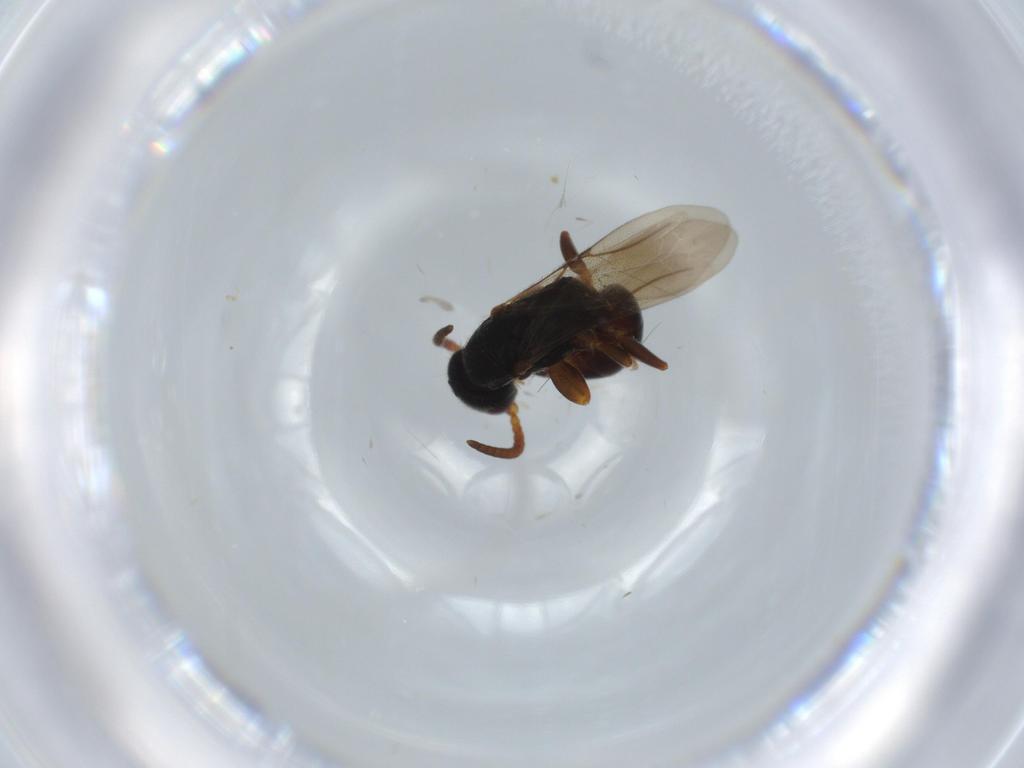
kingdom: Animalia
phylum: Arthropoda
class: Insecta
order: Hymenoptera
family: Bethylidae
